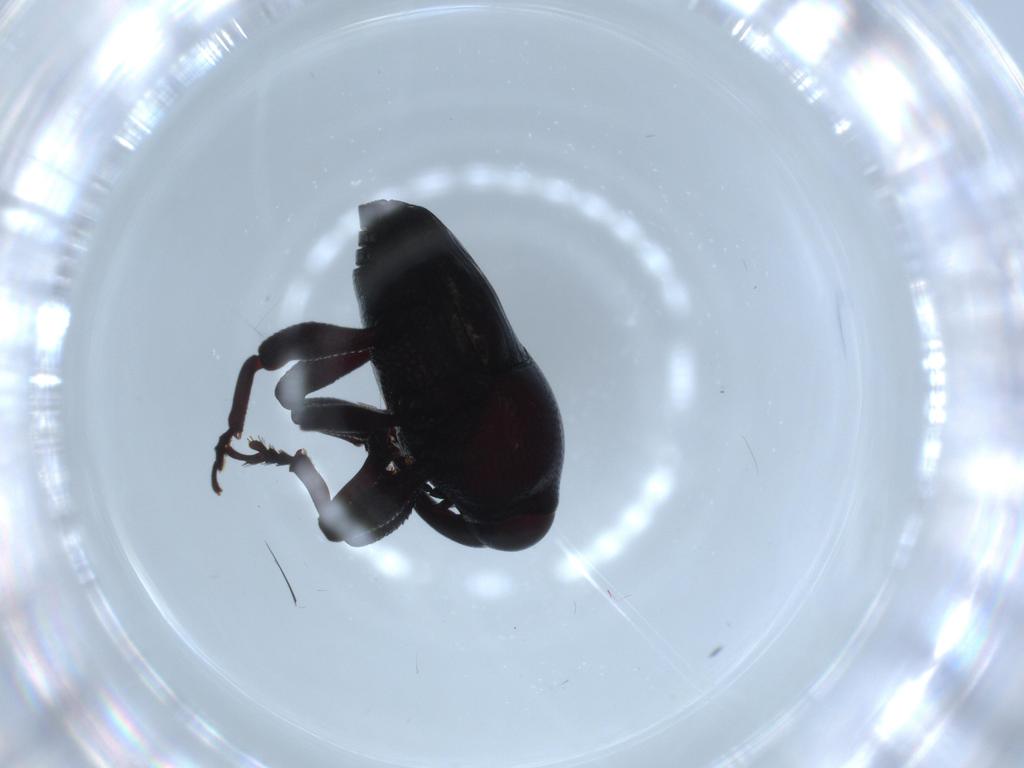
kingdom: Animalia
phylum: Arthropoda
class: Insecta
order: Coleoptera
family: Curculionidae
